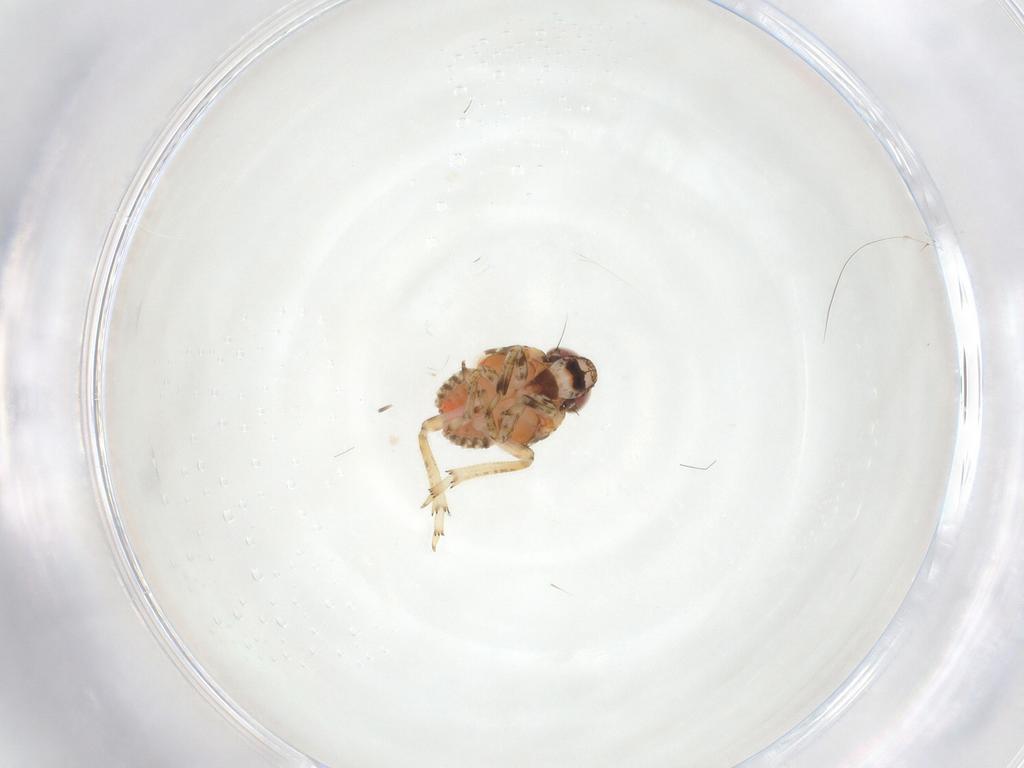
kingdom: Animalia
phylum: Arthropoda
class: Insecta
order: Hemiptera
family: Issidae
